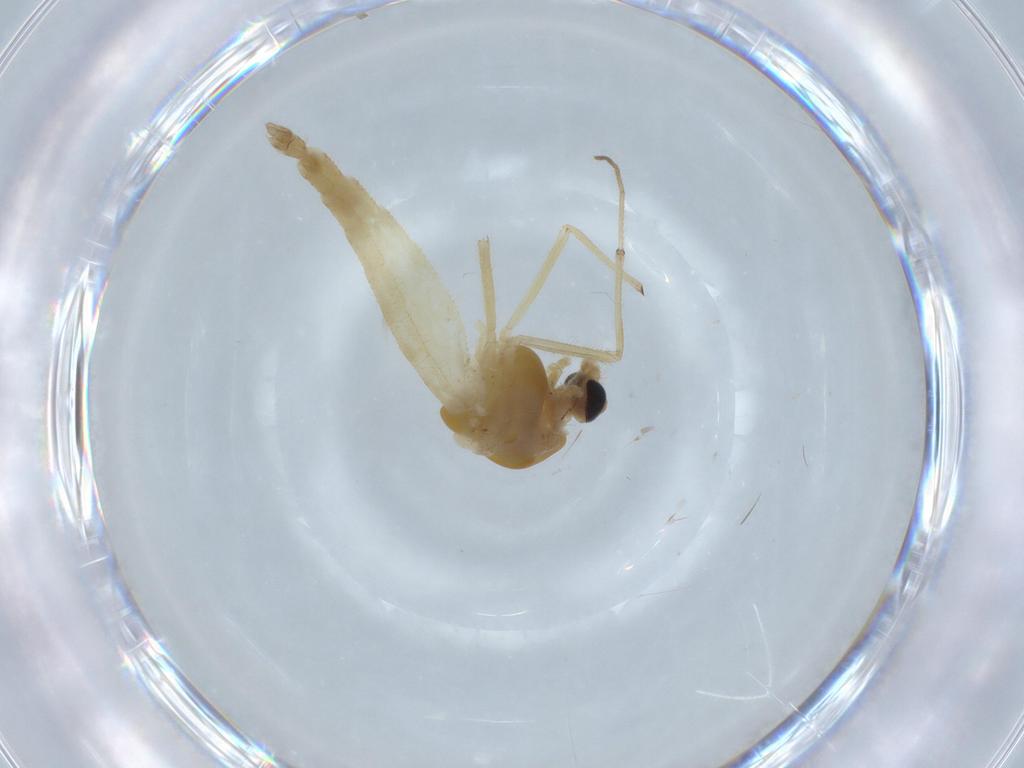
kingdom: Animalia
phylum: Arthropoda
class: Insecta
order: Diptera
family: Chironomidae
